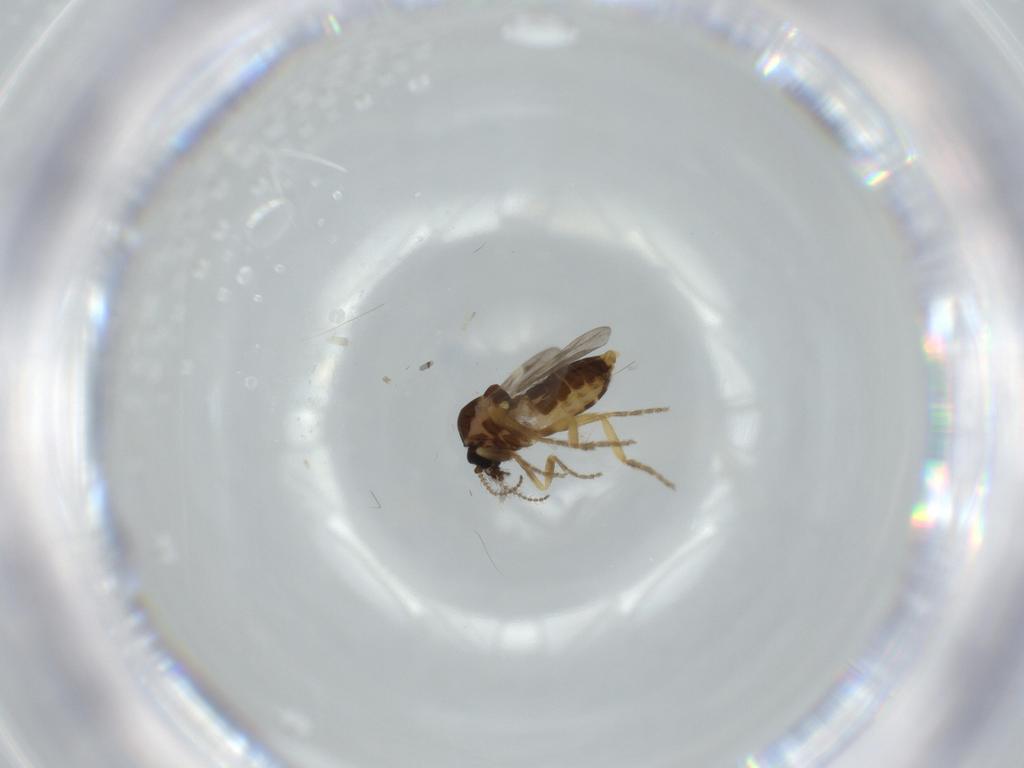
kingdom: Animalia
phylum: Arthropoda
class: Insecta
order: Diptera
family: Ceratopogonidae
